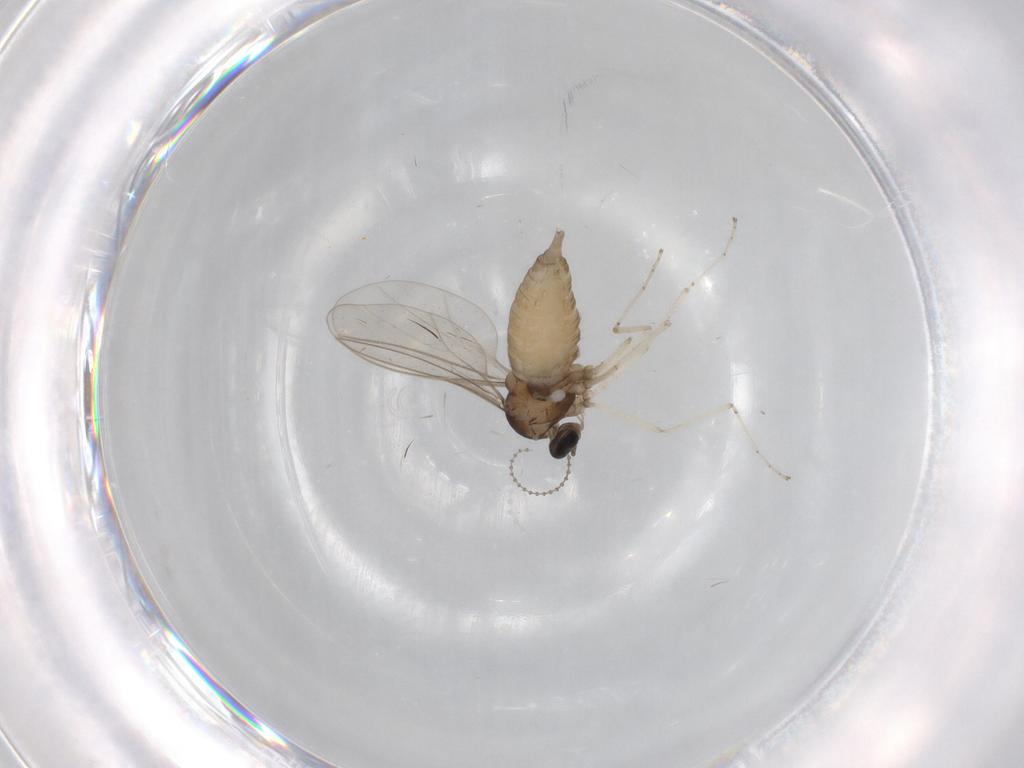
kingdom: Animalia
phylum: Arthropoda
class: Insecta
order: Diptera
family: Cecidomyiidae
